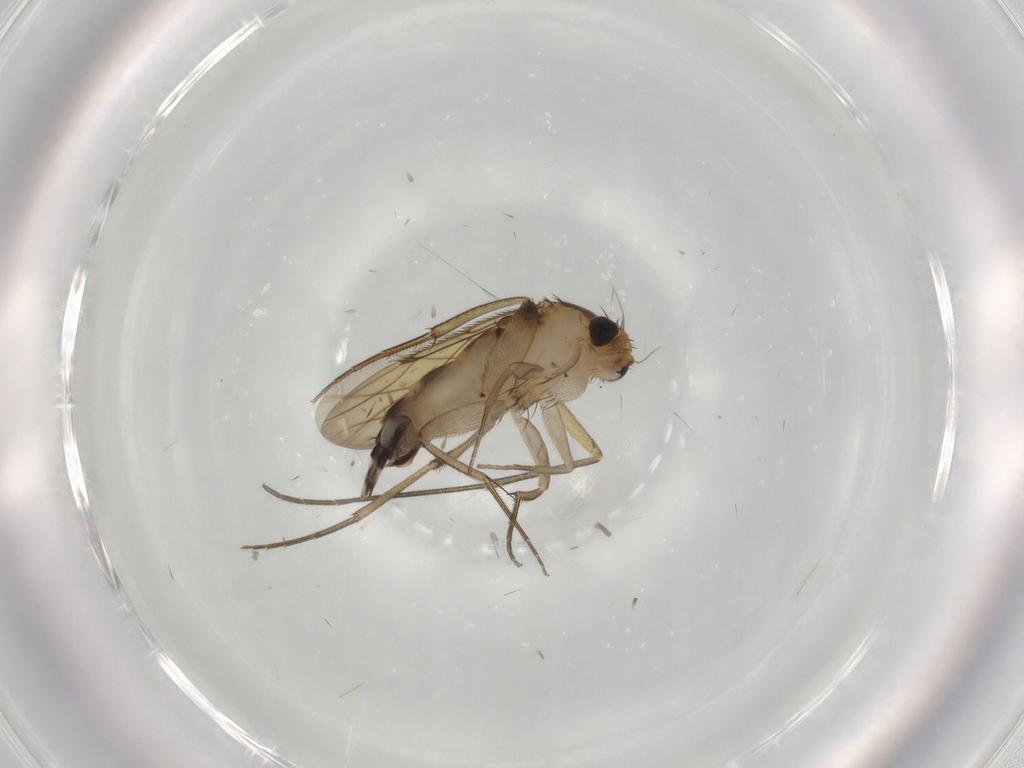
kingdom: Animalia
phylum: Arthropoda
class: Insecta
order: Diptera
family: Phoridae
